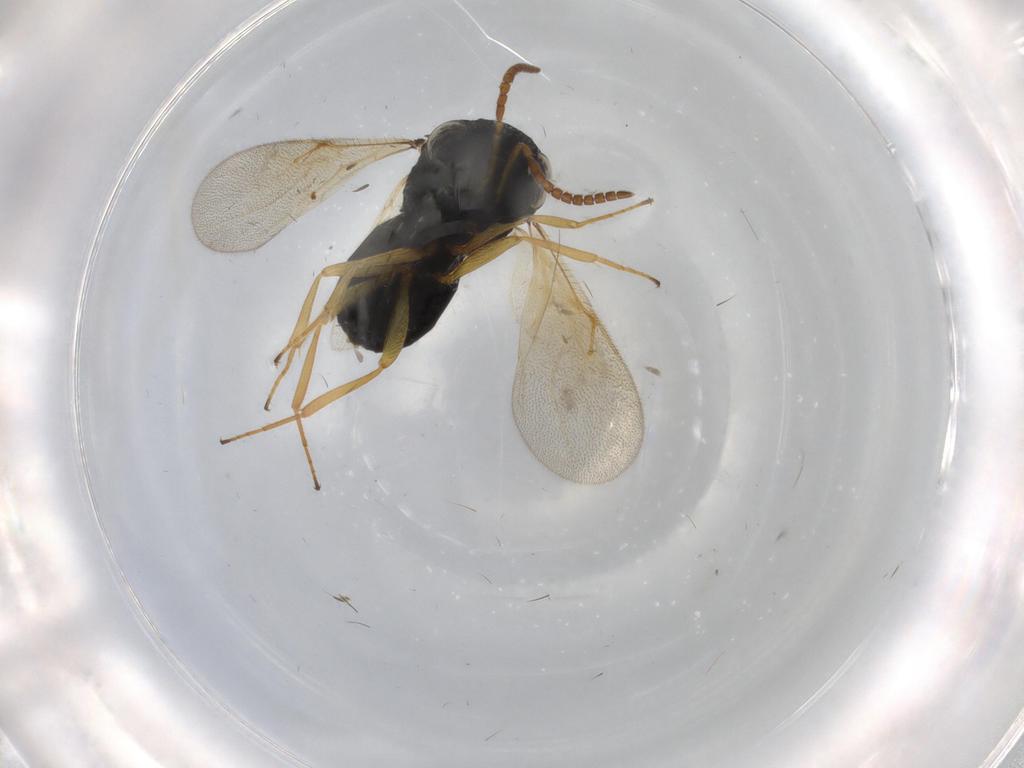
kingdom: Animalia
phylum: Arthropoda
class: Insecta
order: Hymenoptera
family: Scelionidae
